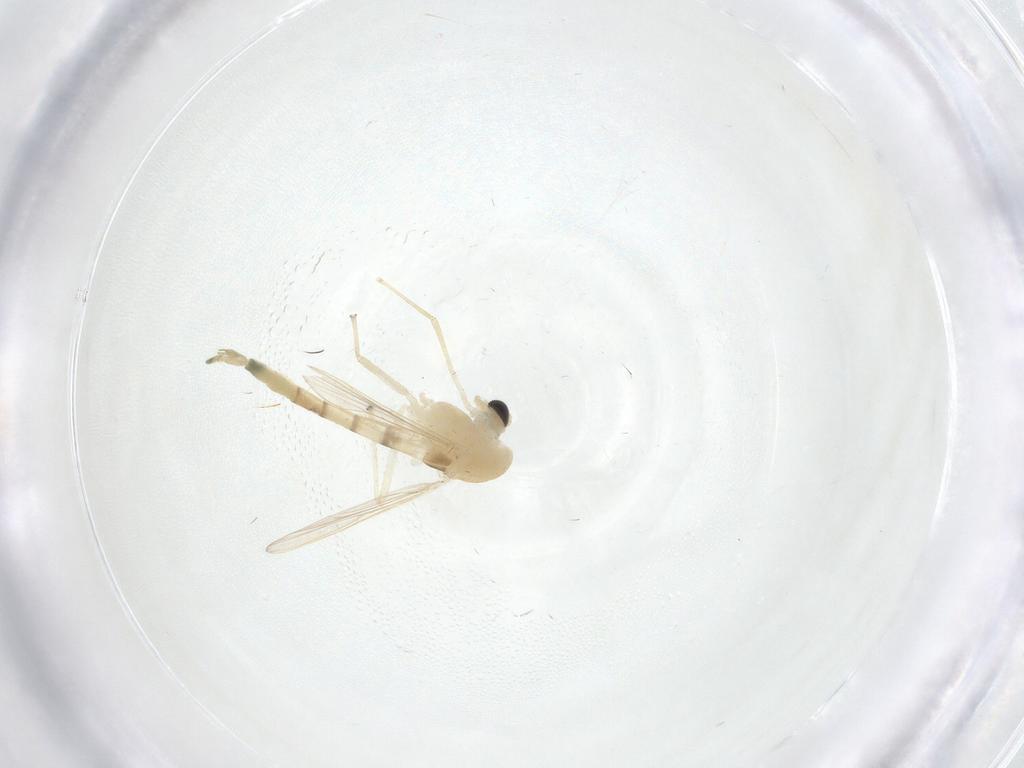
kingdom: Animalia
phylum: Arthropoda
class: Insecta
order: Diptera
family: Chironomidae
